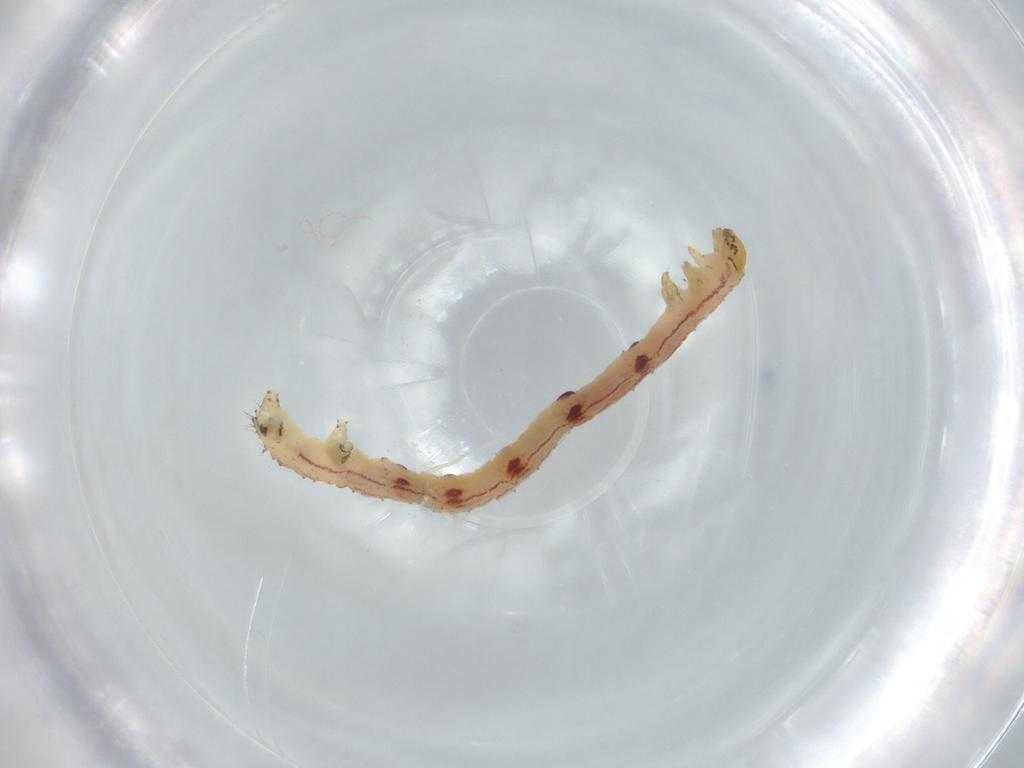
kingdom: Animalia
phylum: Arthropoda
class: Insecta
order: Lepidoptera
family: Geometridae
